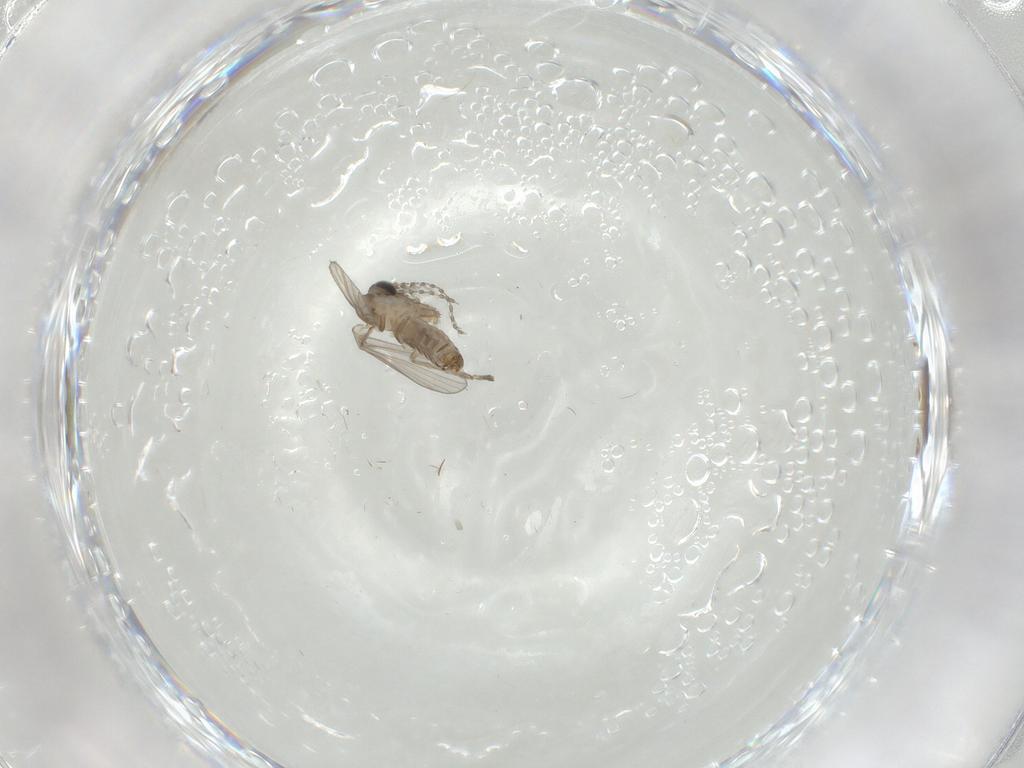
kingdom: Animalia
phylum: Arthropoda
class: Insecta
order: Diptera
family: Cecidomyiidae
